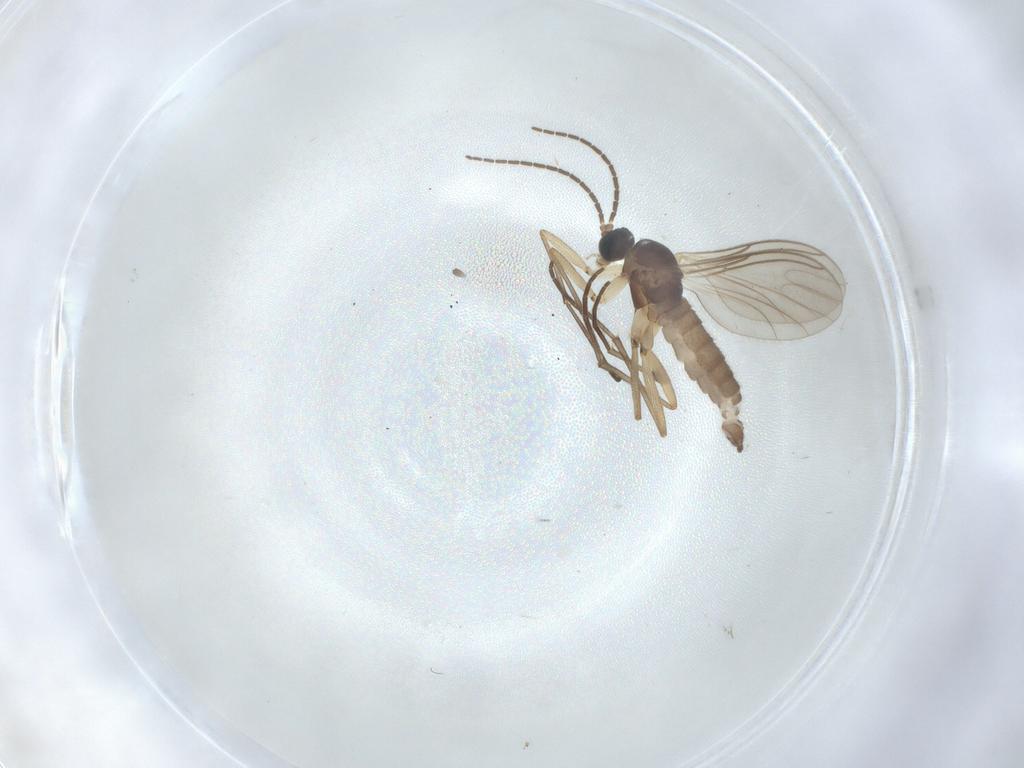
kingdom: Animalia
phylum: Arthropoda
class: Insecta
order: Diptera
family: Sciaridae
